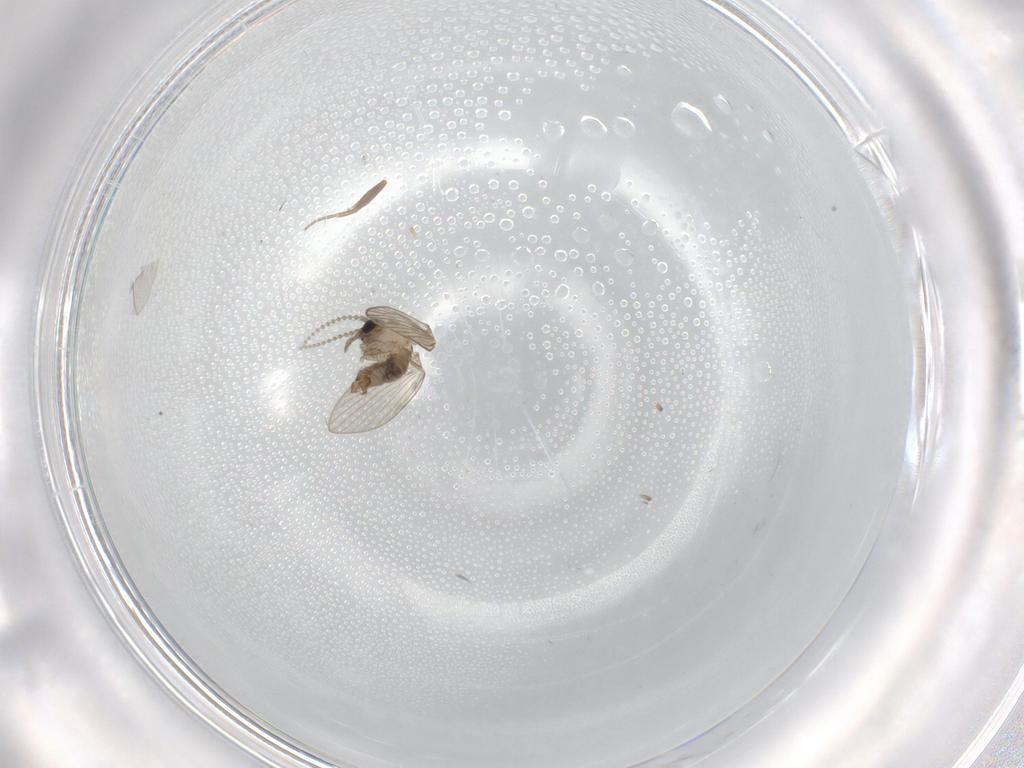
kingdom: Animalia
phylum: Arthropoda
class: Insecta
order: Diptera
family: Psychodidae
